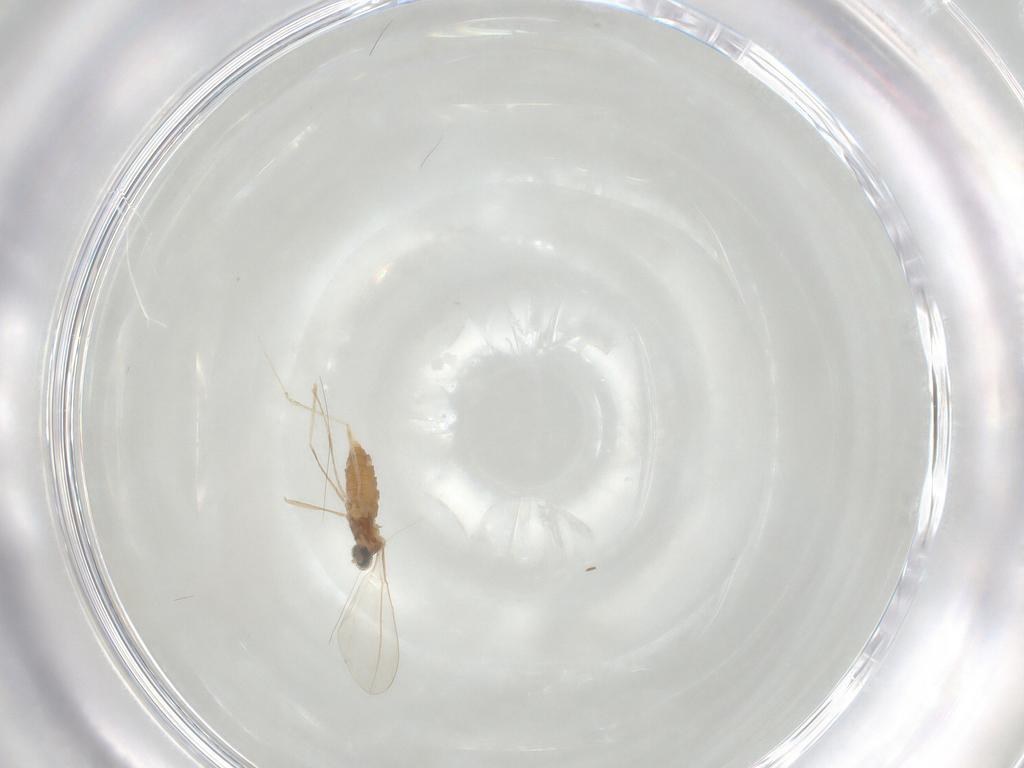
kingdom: Animalia
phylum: Arthropoda
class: Insecta
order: Diptera
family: Cecidomyiidae
